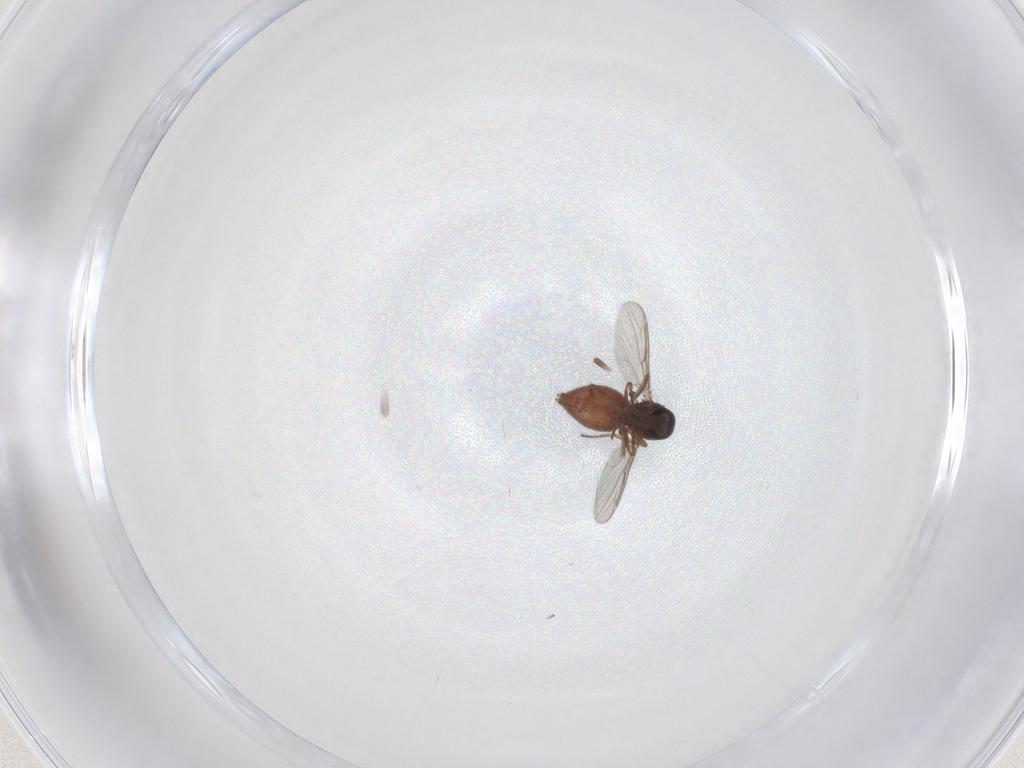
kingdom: Animalia
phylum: Arthropoda
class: Insecta
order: Diptera
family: Ceratopogonidae
